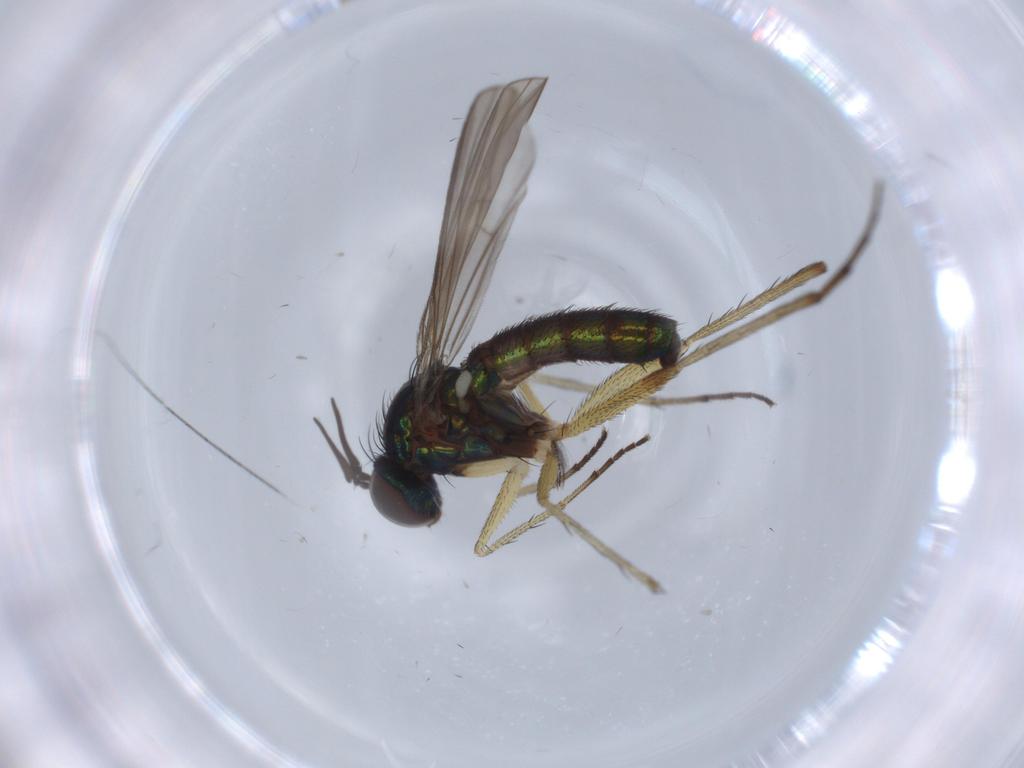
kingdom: Animalia
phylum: Arthropoda
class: Insecta
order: Diptera
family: Dolichopodidae
